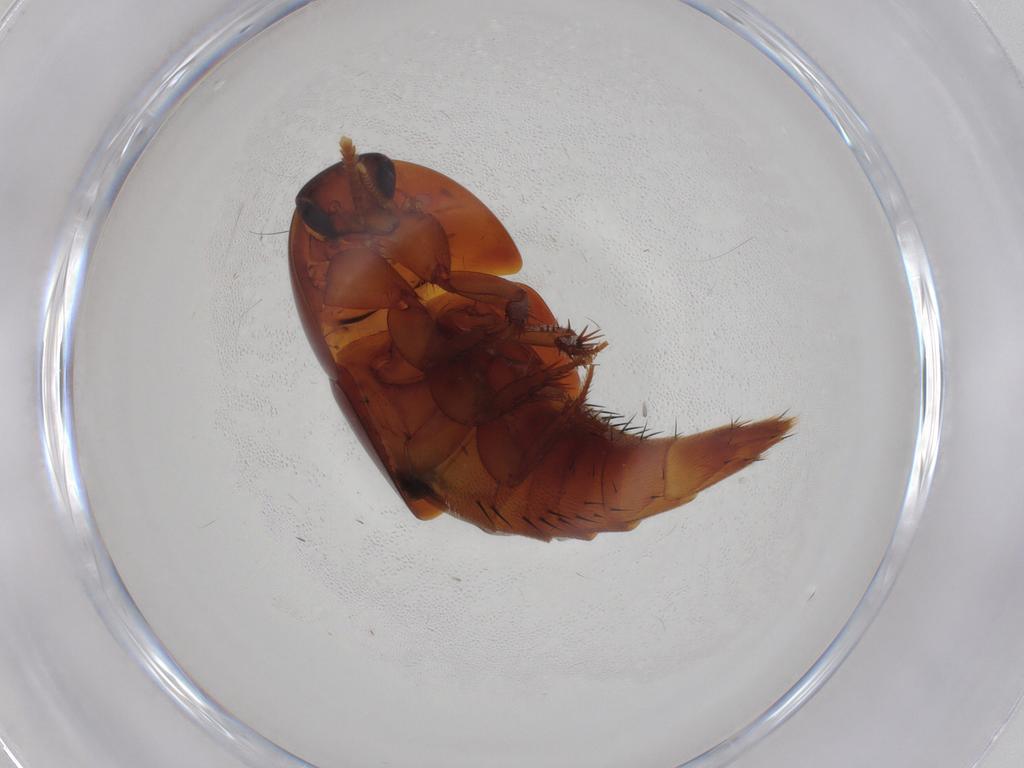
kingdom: Animalia
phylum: Arthropoda
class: Insecta
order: Coleoptera
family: Staphylinidae
